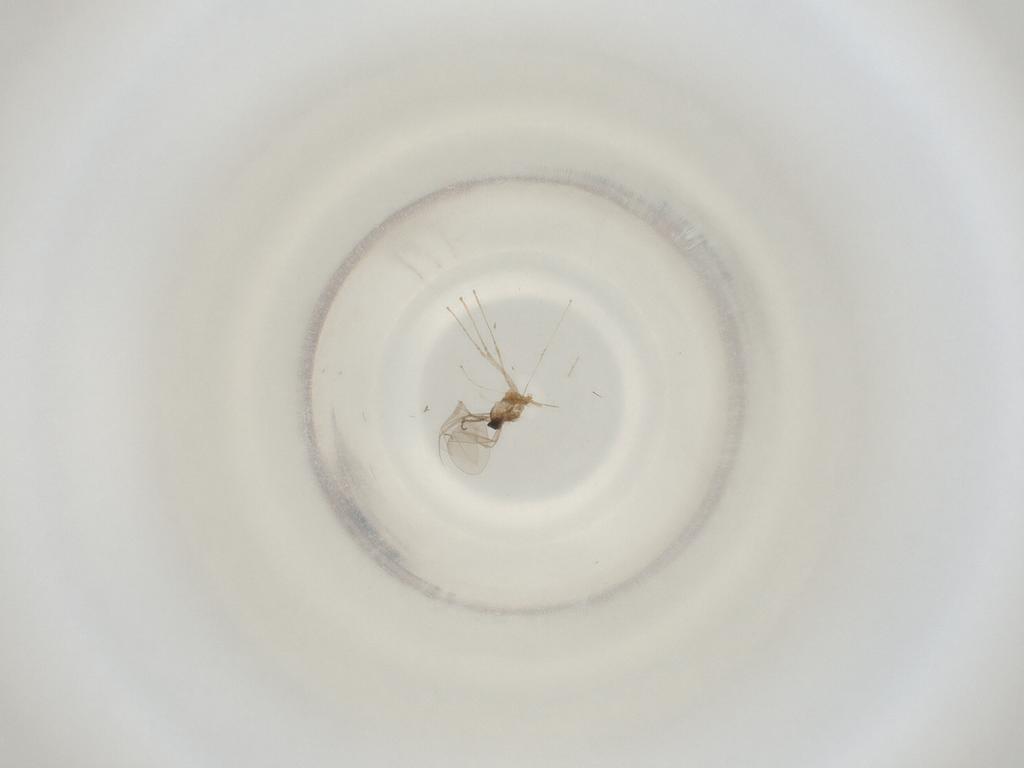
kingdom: Animalia
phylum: Arthropoda
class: Insecta
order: Diptera
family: Cecidomyiidae
